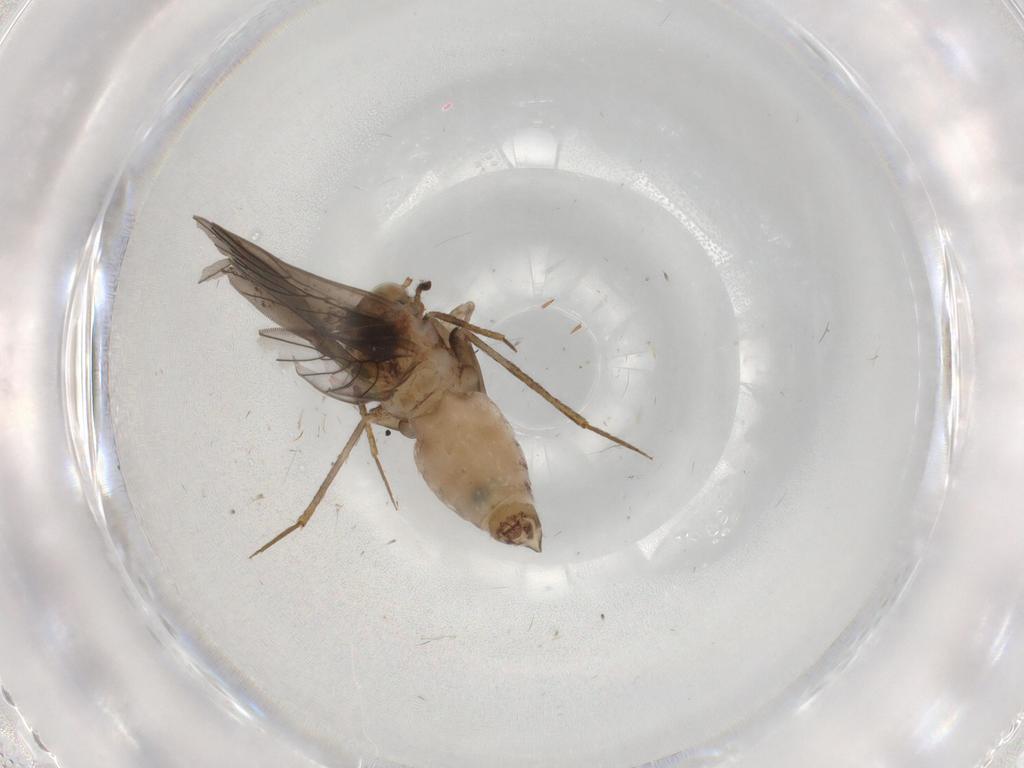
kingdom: Animalia
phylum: Arthropoda
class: Insecta
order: Psocodea
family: Lepidopsocidae
